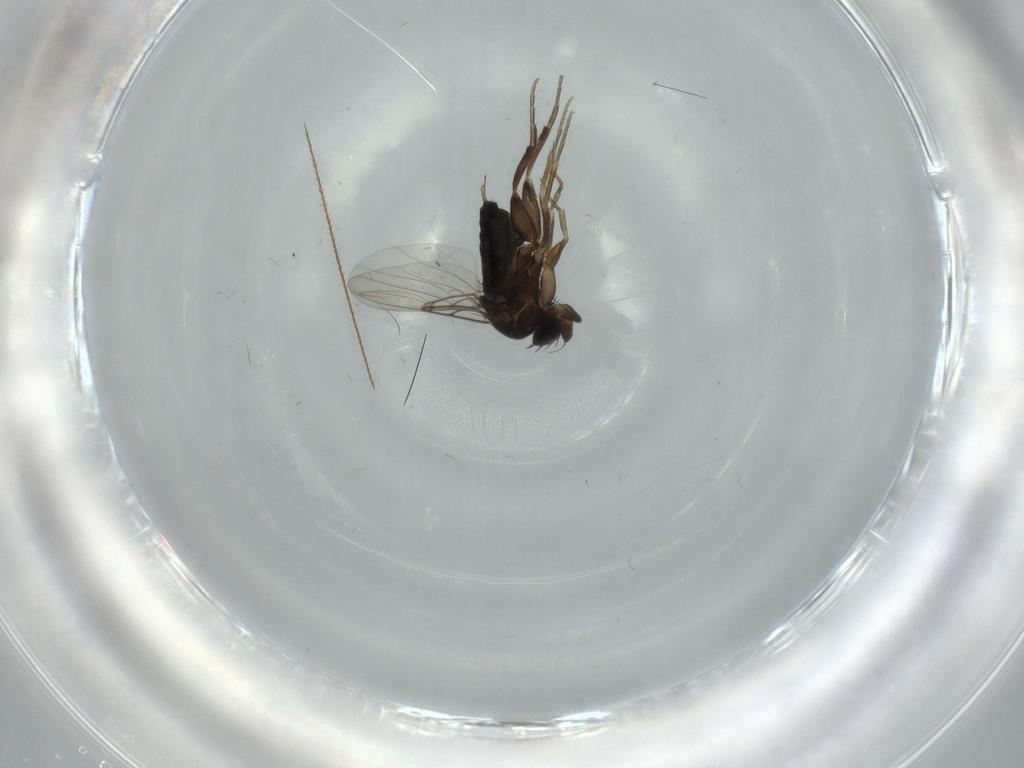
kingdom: Animalia
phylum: Arthropoda
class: Insecta
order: Diptera
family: Phoridae
